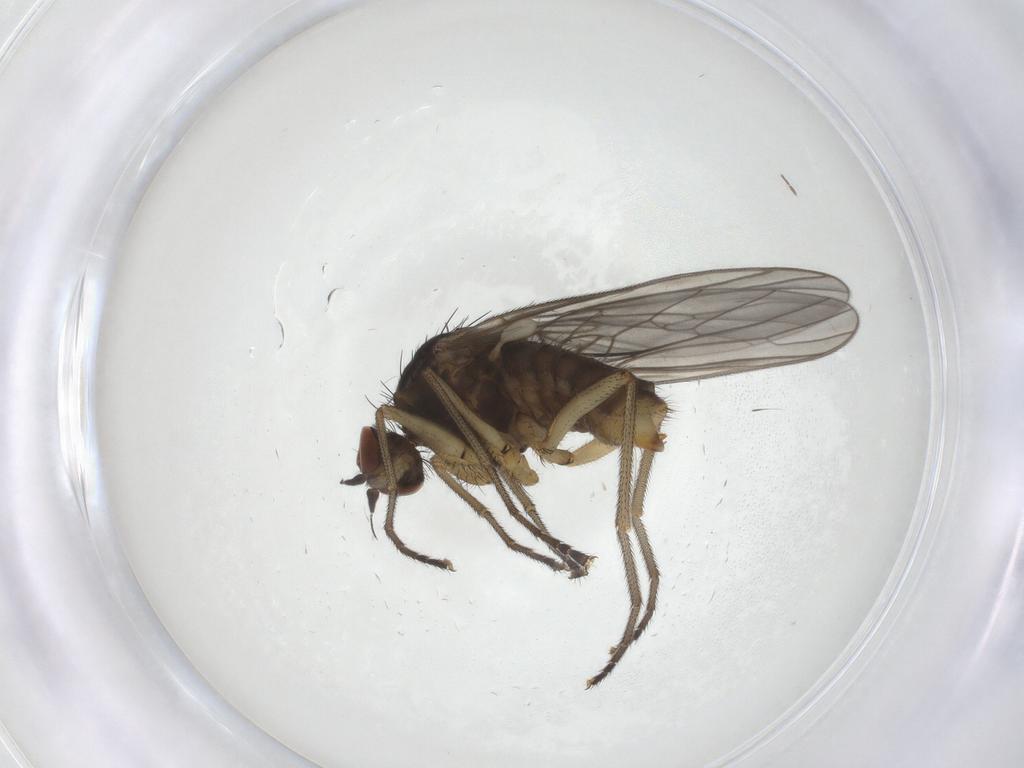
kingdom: Animalia
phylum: Arthropoda
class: Insecta
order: Diptera
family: Brachystomatidae
